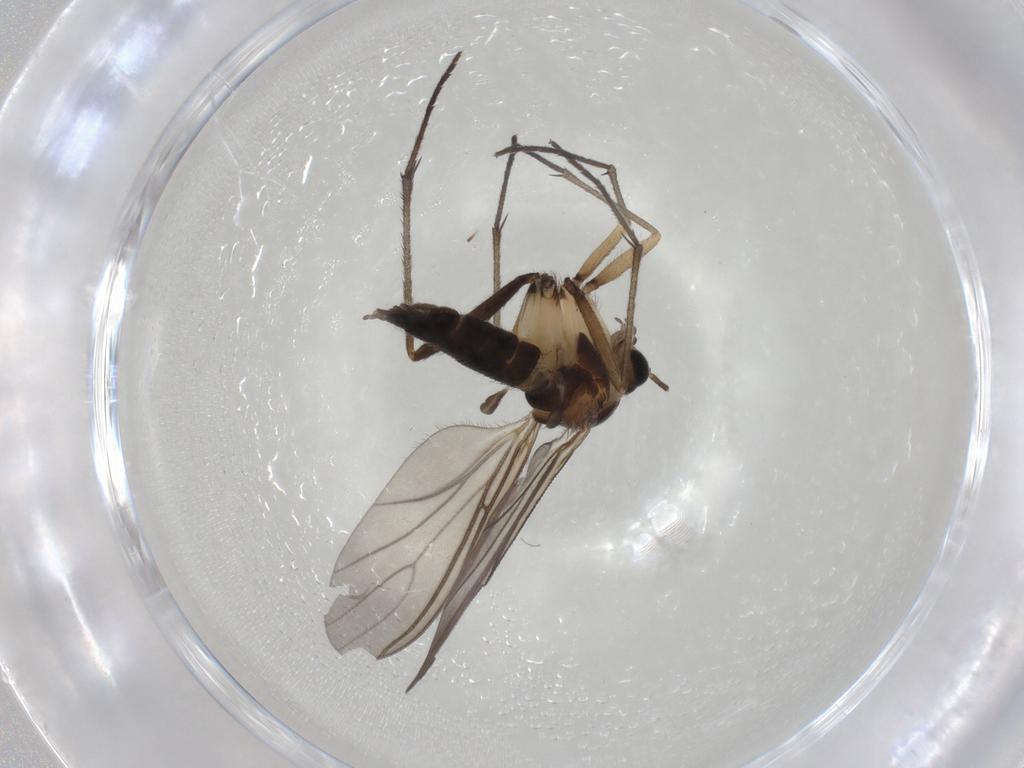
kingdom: Animalia
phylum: Arthropoda
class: Insecta
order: Diptera
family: Sciaridae
